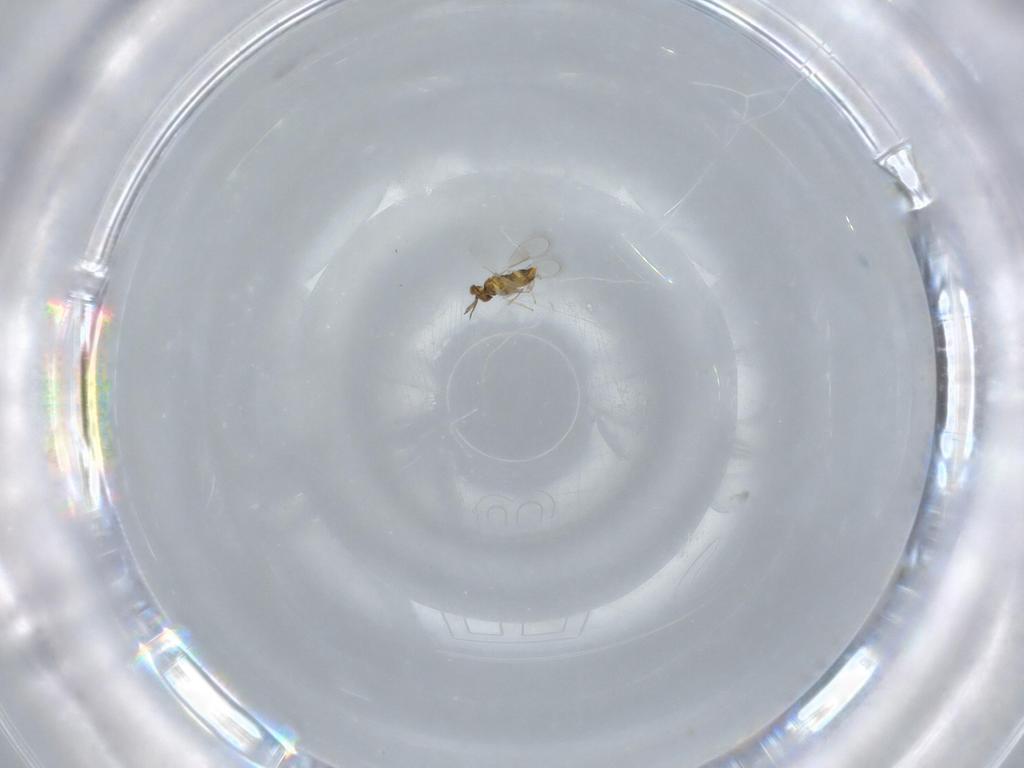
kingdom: Animalia
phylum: Arthropoda
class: Insecta
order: Hymenoptera
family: Aphelinidae
